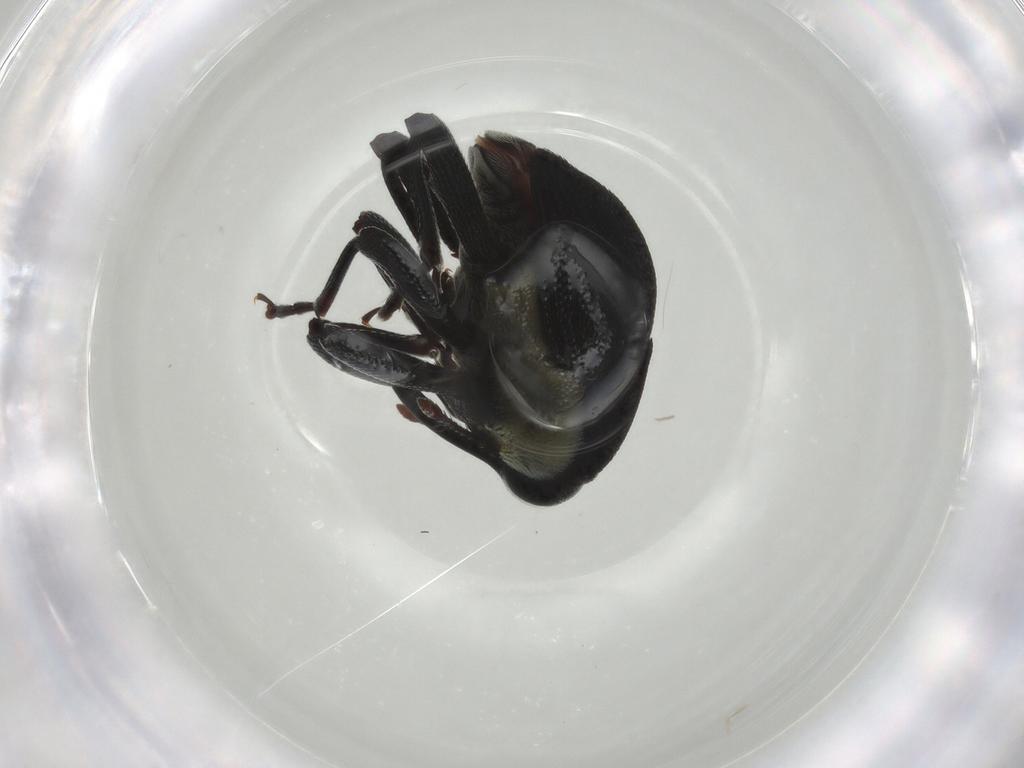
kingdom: Animalia
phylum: Arthropoda
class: Insecta
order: Coleoptera
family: Curculionidae
